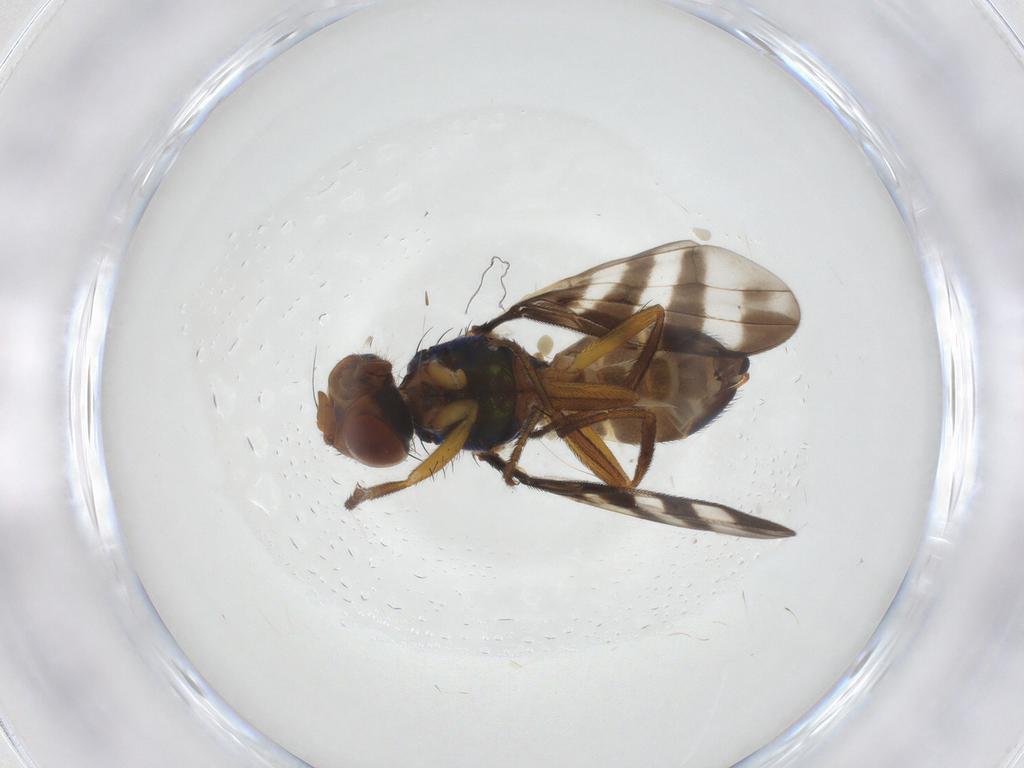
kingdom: Animalia
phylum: Arthropoda
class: Insecta
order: Diptera
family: Platystomatidae
